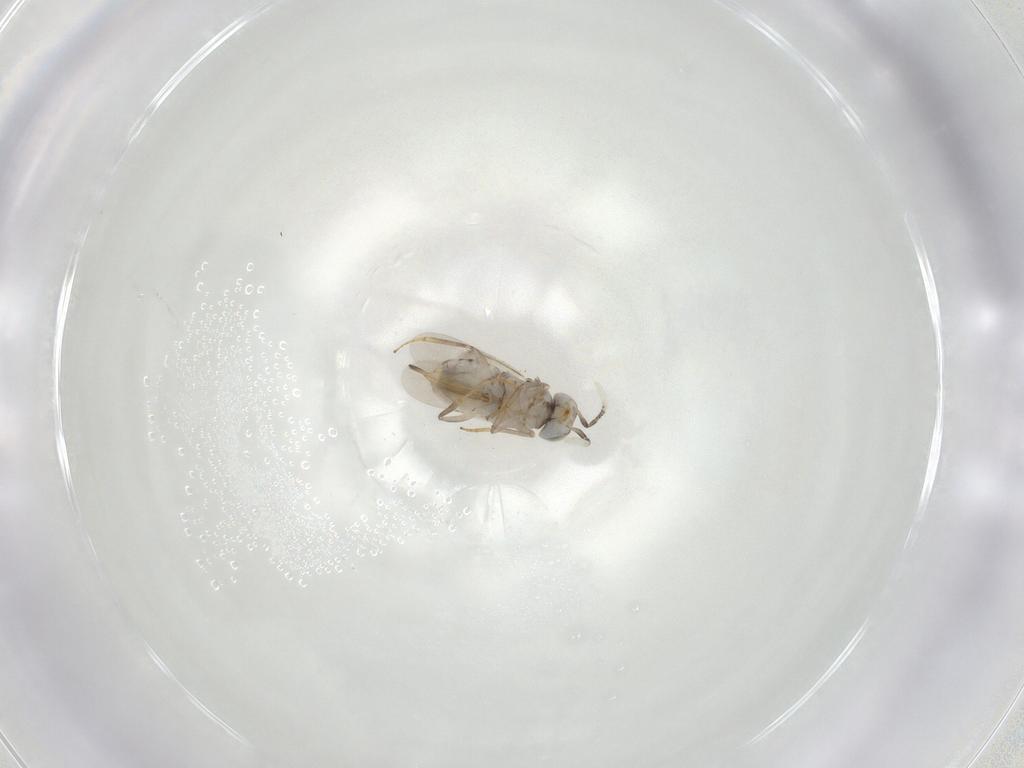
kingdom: Animalia
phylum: Arthropoda
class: Insecta
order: Hymenoptera
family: Encyrtidae
